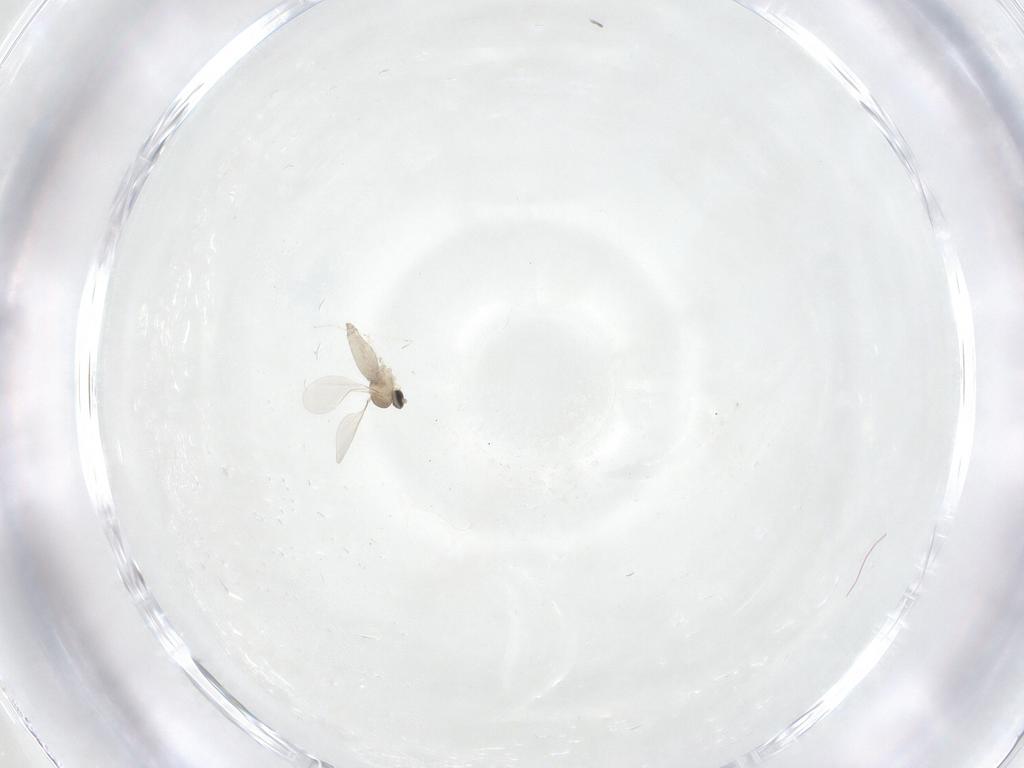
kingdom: Animalia
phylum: Arthropoda
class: Insecta
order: Diptera
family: Cecidomyiidae
